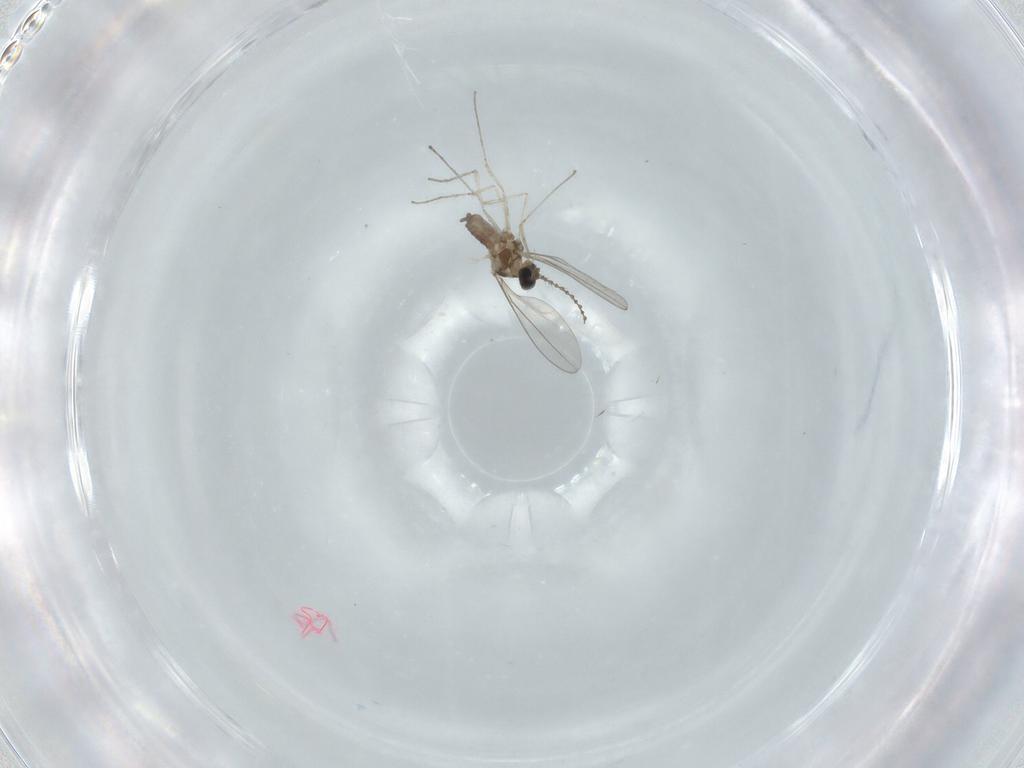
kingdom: Animalia
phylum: Arthropoda
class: Insecta
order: Diptera
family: Cecidomyiidae
